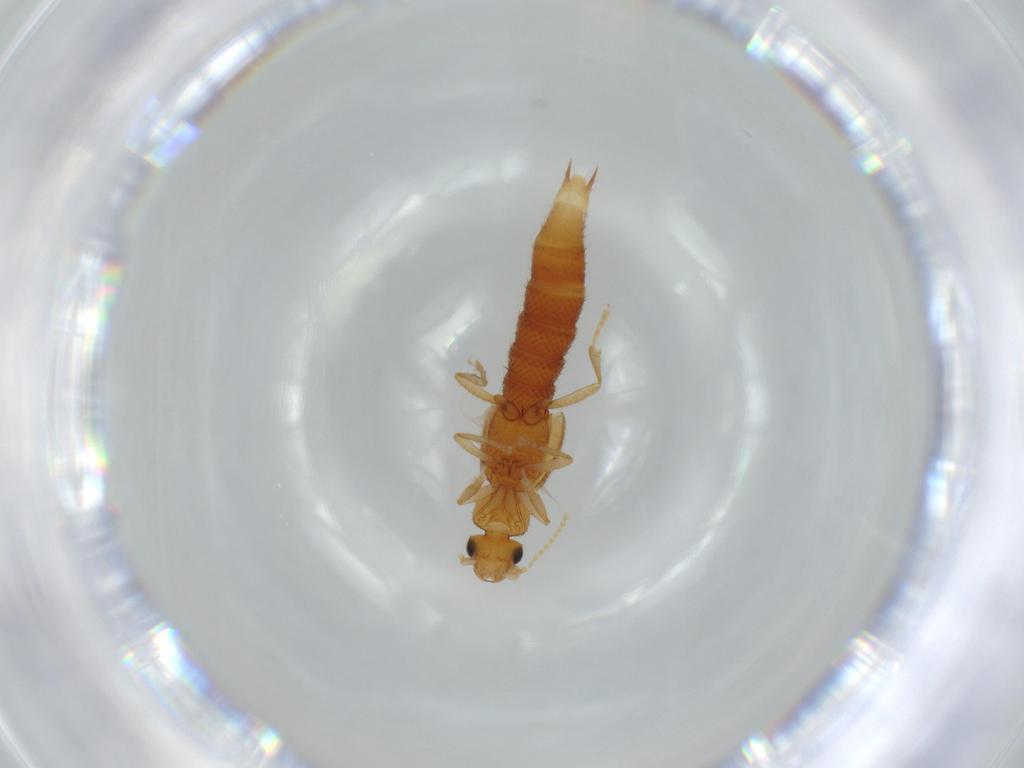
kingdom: Animalia
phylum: Arthropoda
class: Insecta
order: Coleoptera
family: Staphylinidae
